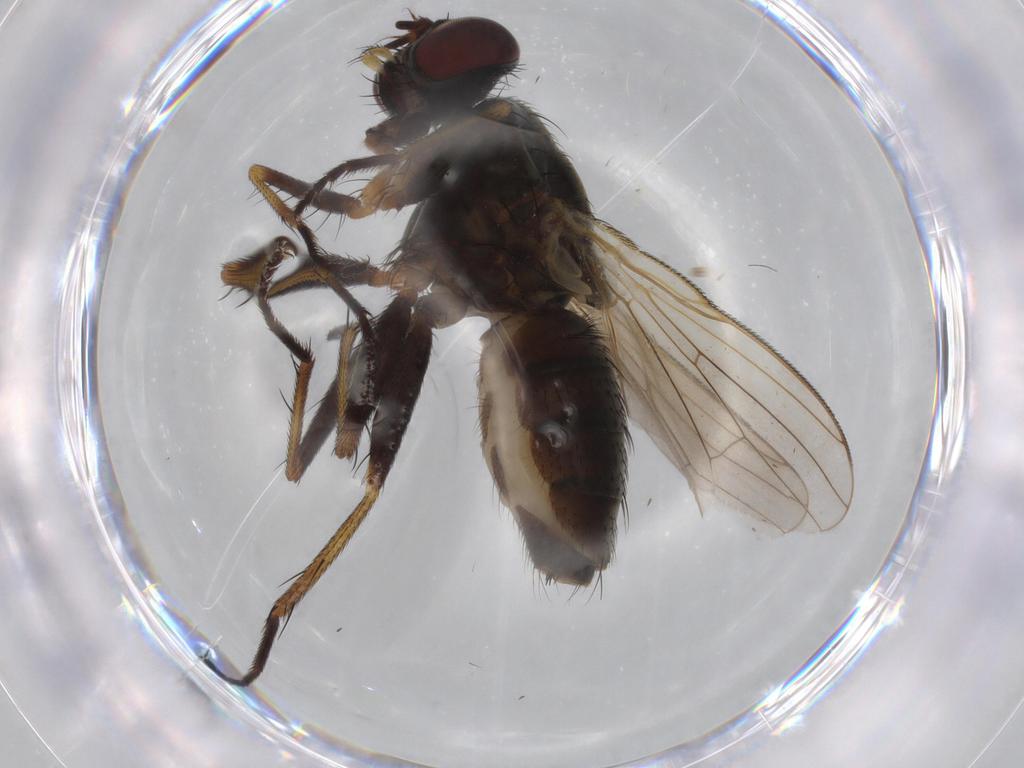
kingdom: Animalia
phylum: Arthropoda
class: Insecta
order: Diptera
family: Muscidae
